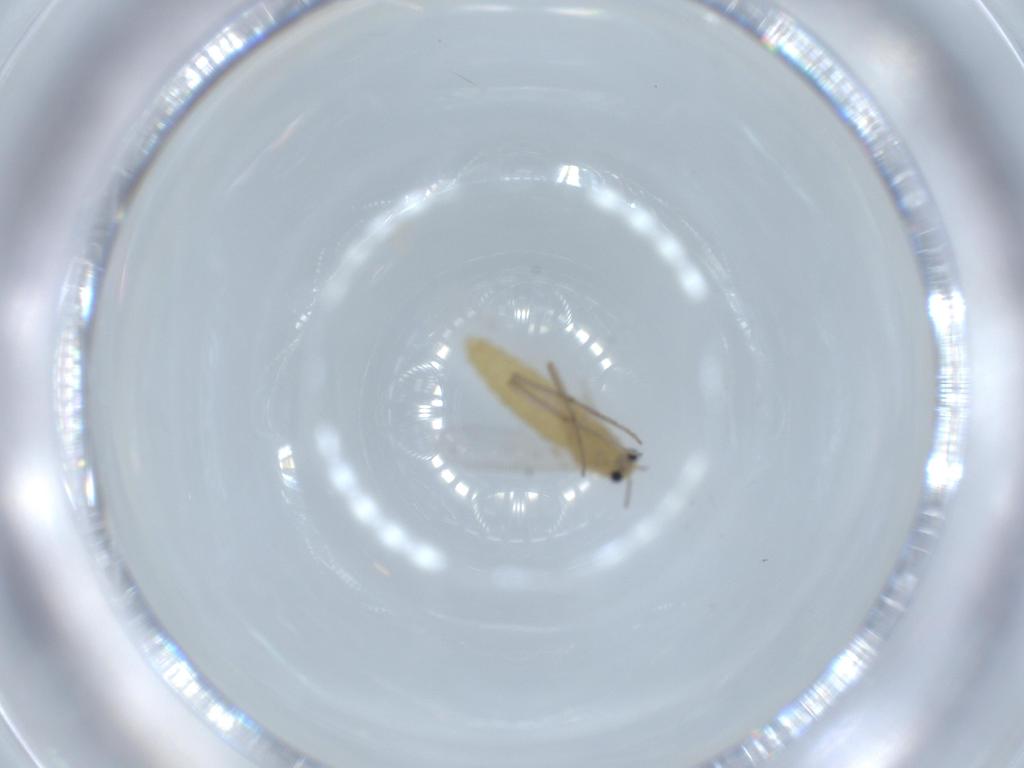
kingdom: Animalia
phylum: Arthropoda
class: Insecta
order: Diptera
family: Chironomidae
